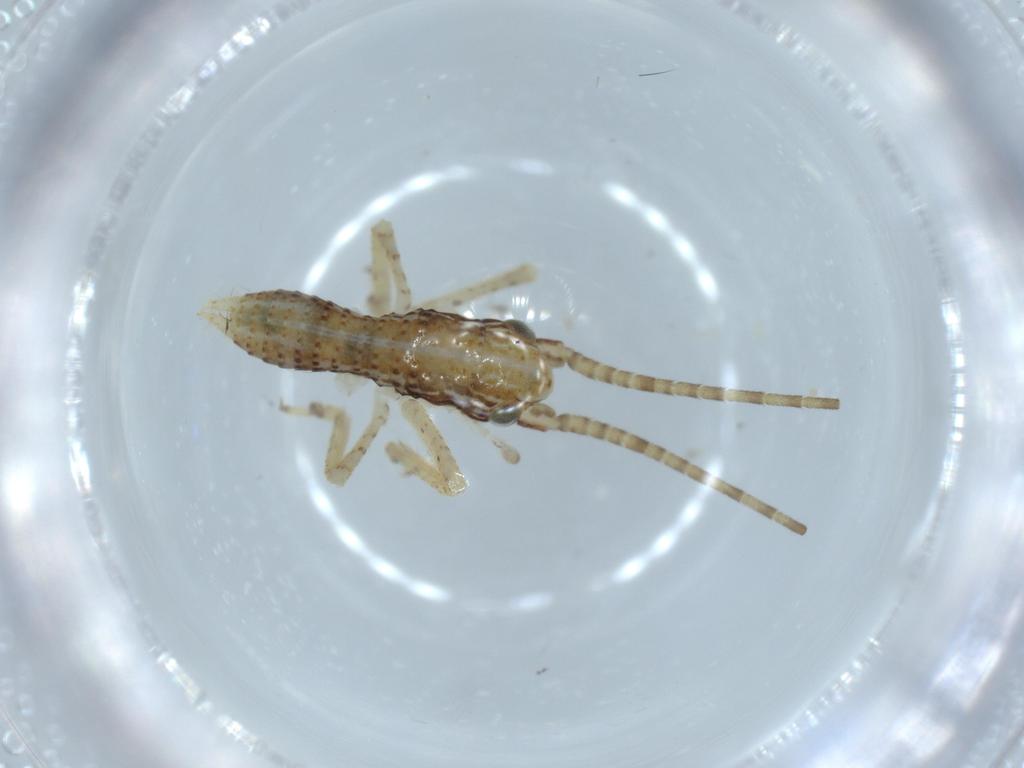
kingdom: Animalia
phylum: Arthropoda
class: Insecta
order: Orthoptera
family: Gryllidae
